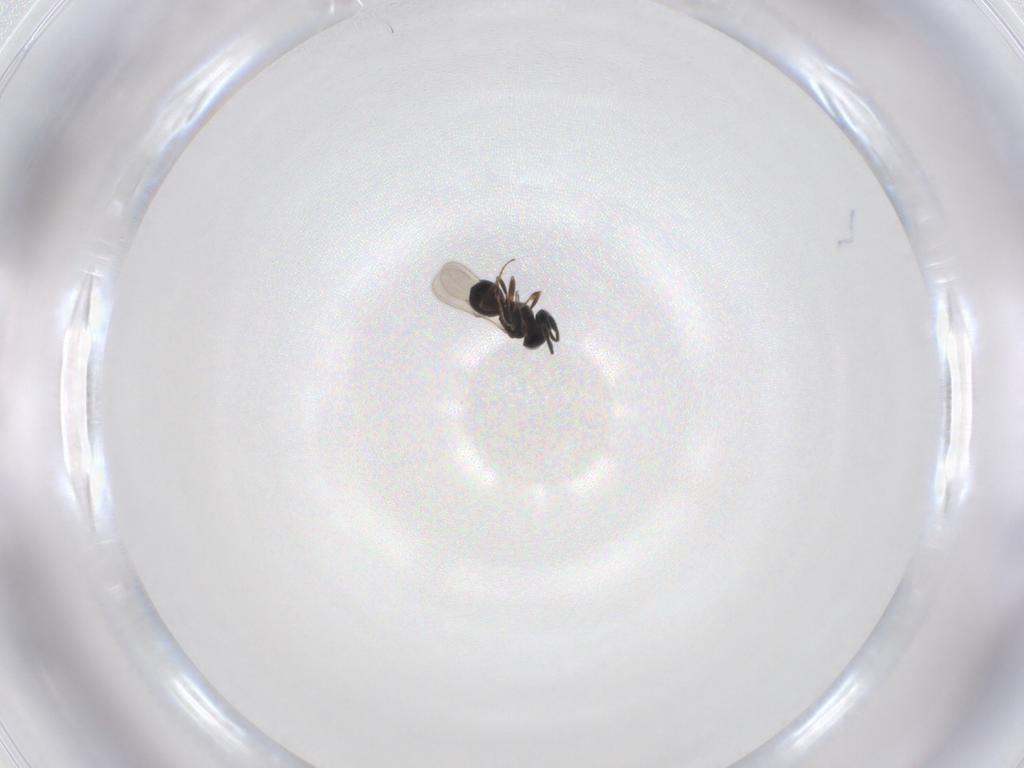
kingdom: Animalia
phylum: Arthropoda
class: Insecta
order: Hymenoptera
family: Scelionidae
